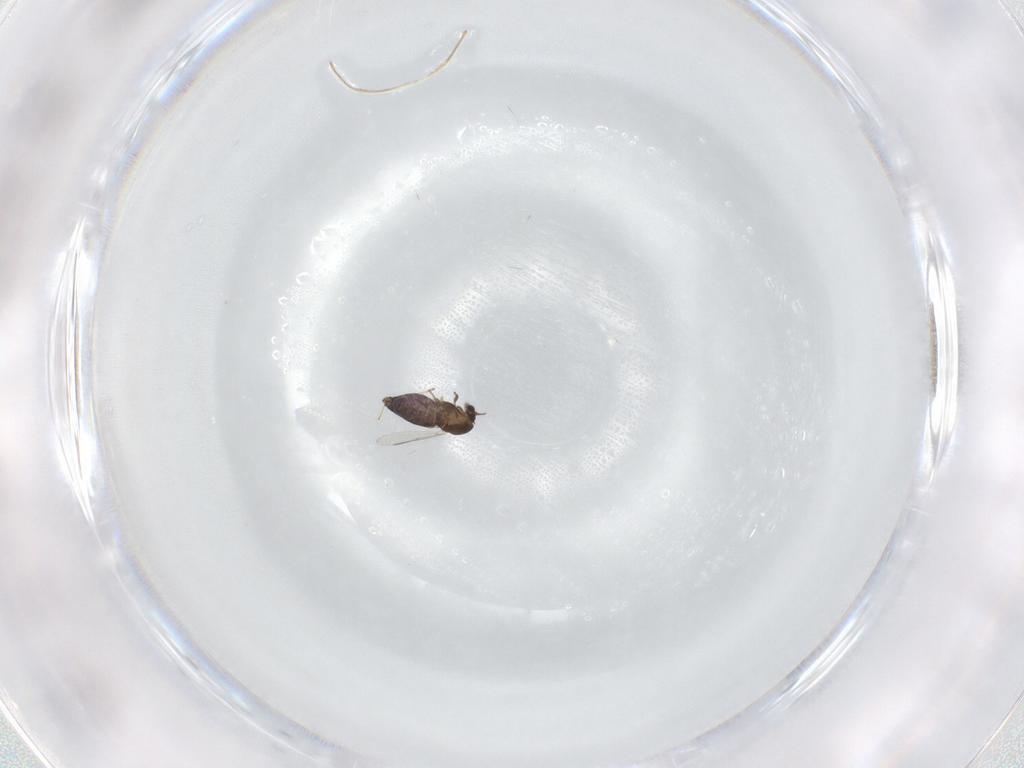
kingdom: Animalia
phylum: Arthropoda
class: Insecta
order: Diptera
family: Chironomidae
